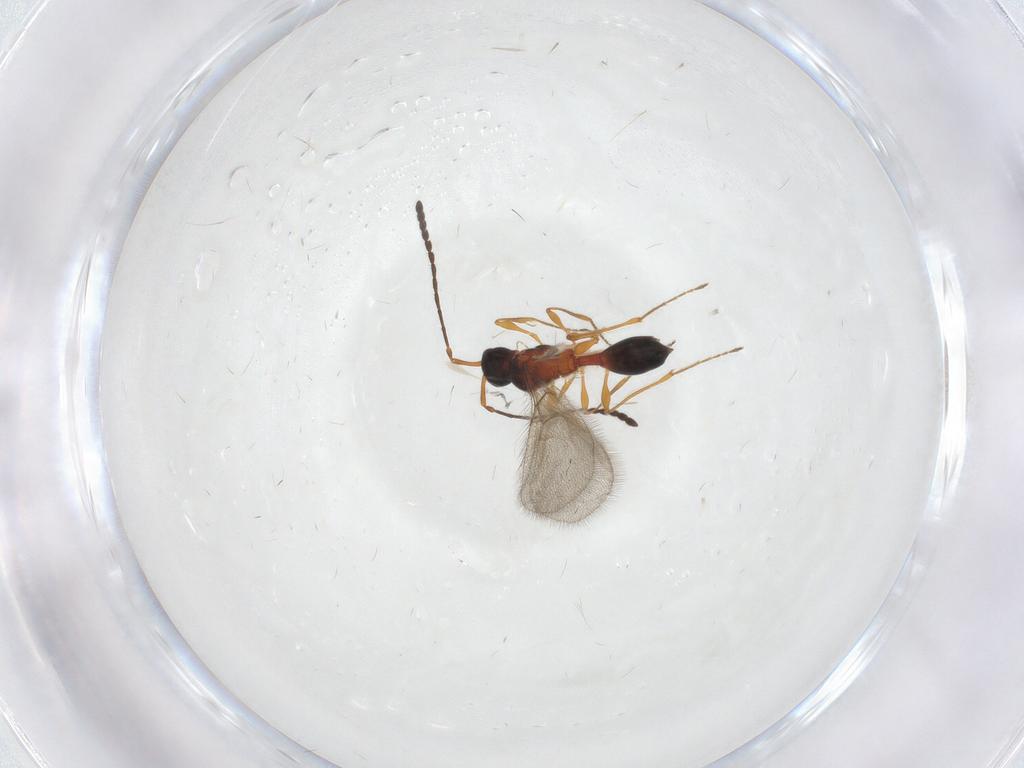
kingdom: Animalia
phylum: Arthropoda
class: Insecta
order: Hymenoptera
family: Diapriidae
